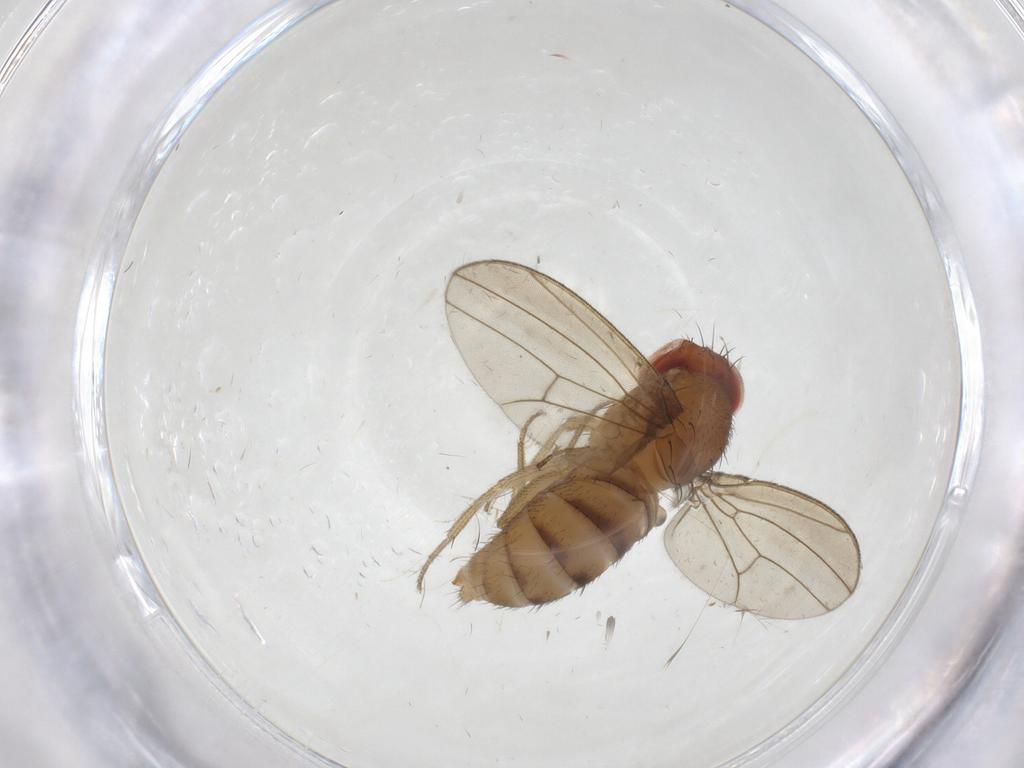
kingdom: Animalia
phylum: Arthropoda
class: Insecta
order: Diptera
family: Drosophilidae
